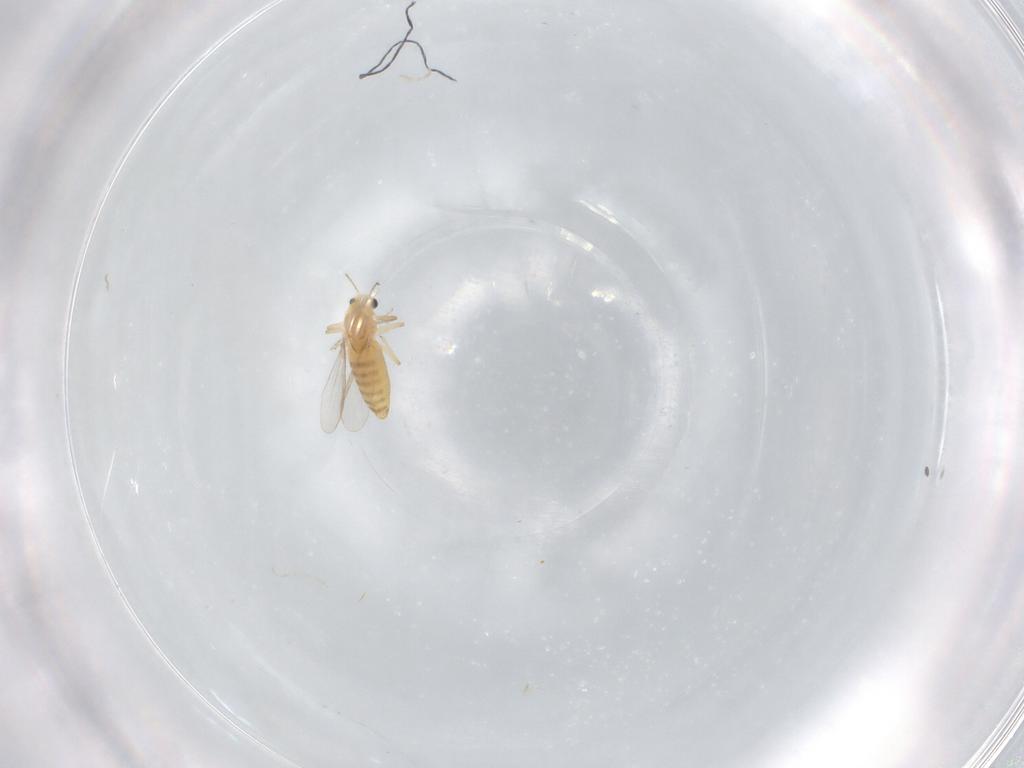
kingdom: Animalia
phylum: Arthropoda
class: Insecta
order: Diptera
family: Chironomidae
